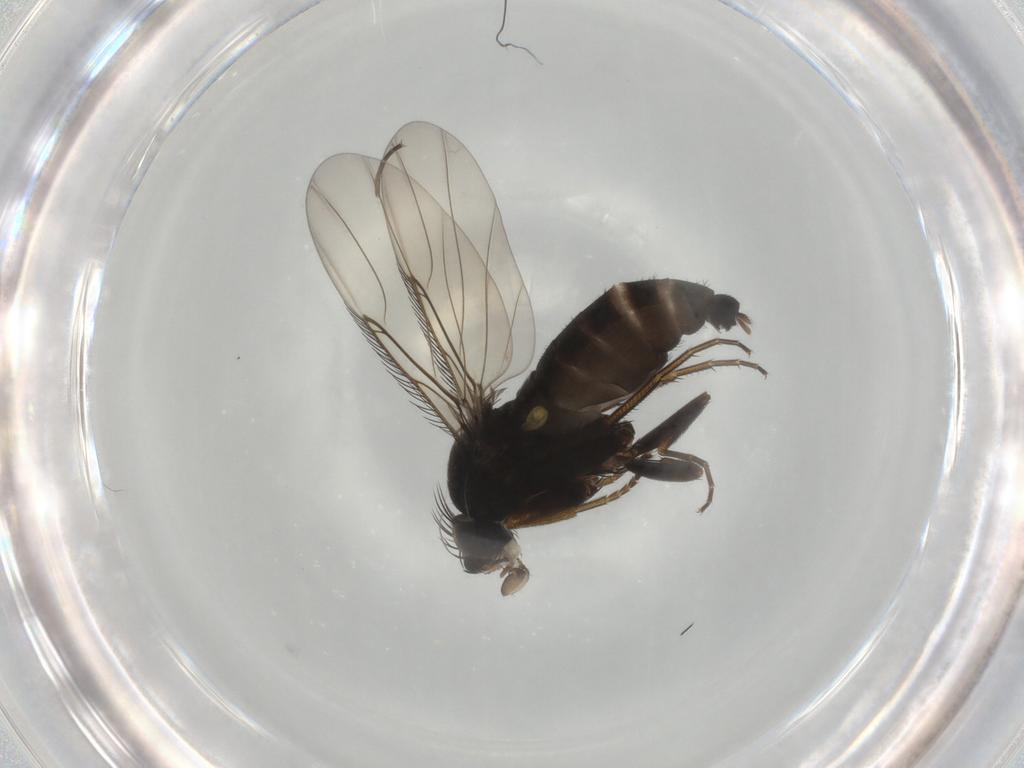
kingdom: Animalia
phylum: Arthropoda
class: Insecta
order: Diptera
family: Phoridae
